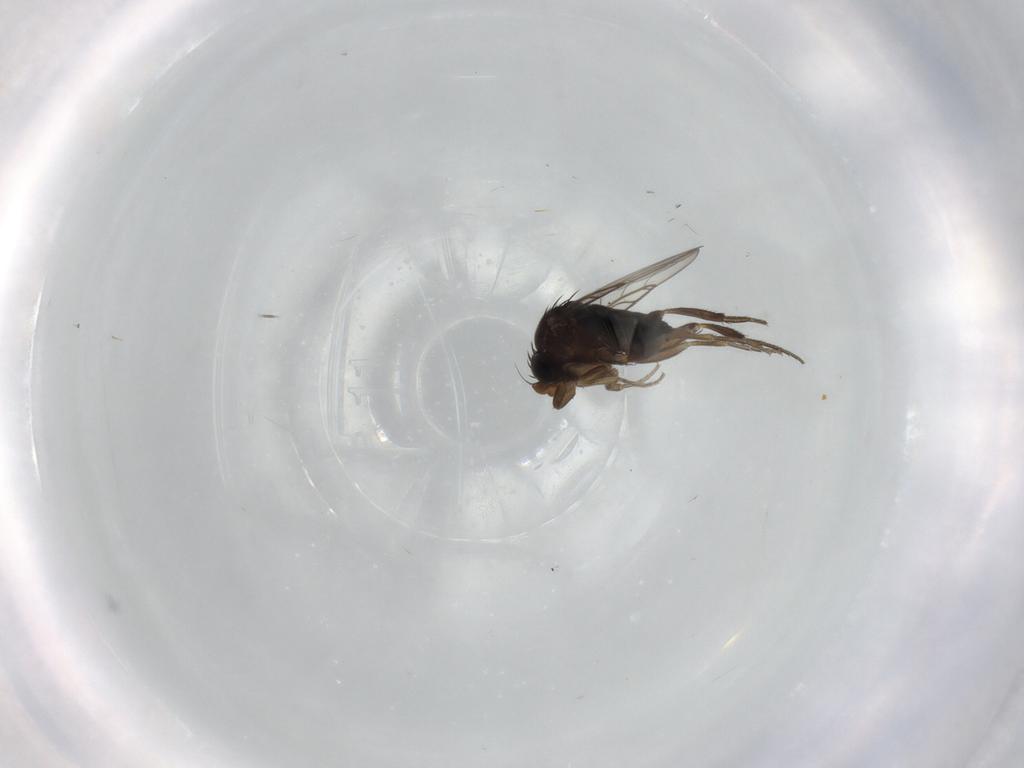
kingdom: Animalia
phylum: Arthropoda
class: Insecta
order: Diptera
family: Phoridae
